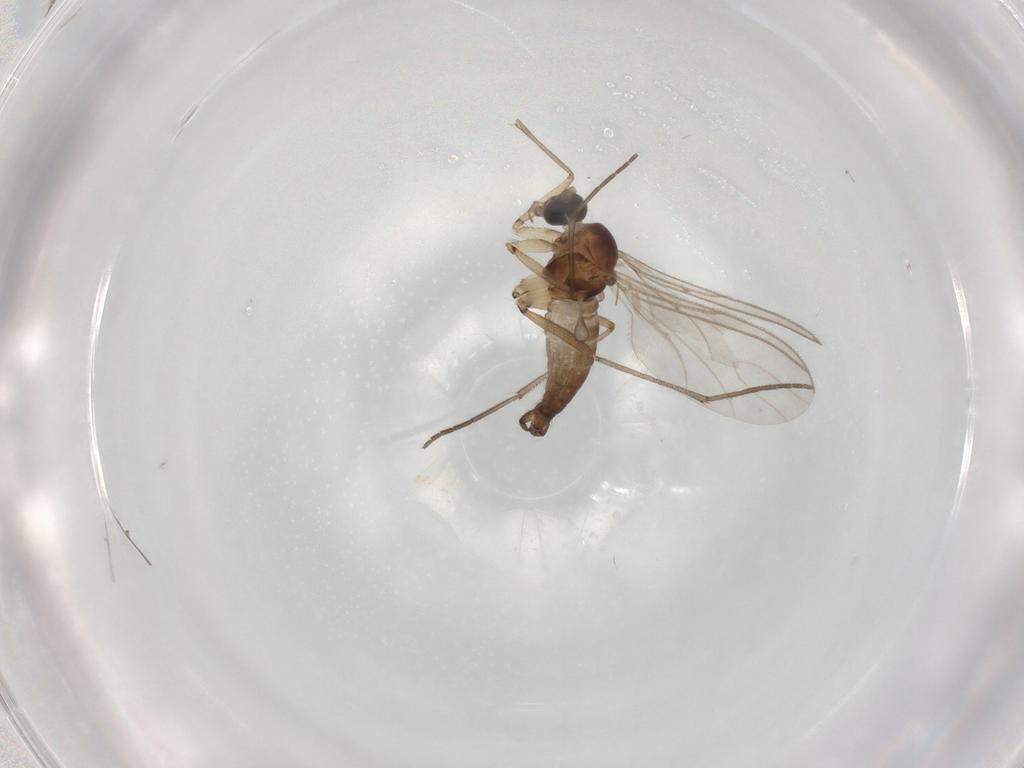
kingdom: Animalia
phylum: Arthropoda
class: Insecta
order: Diptera
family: Sciaridae
